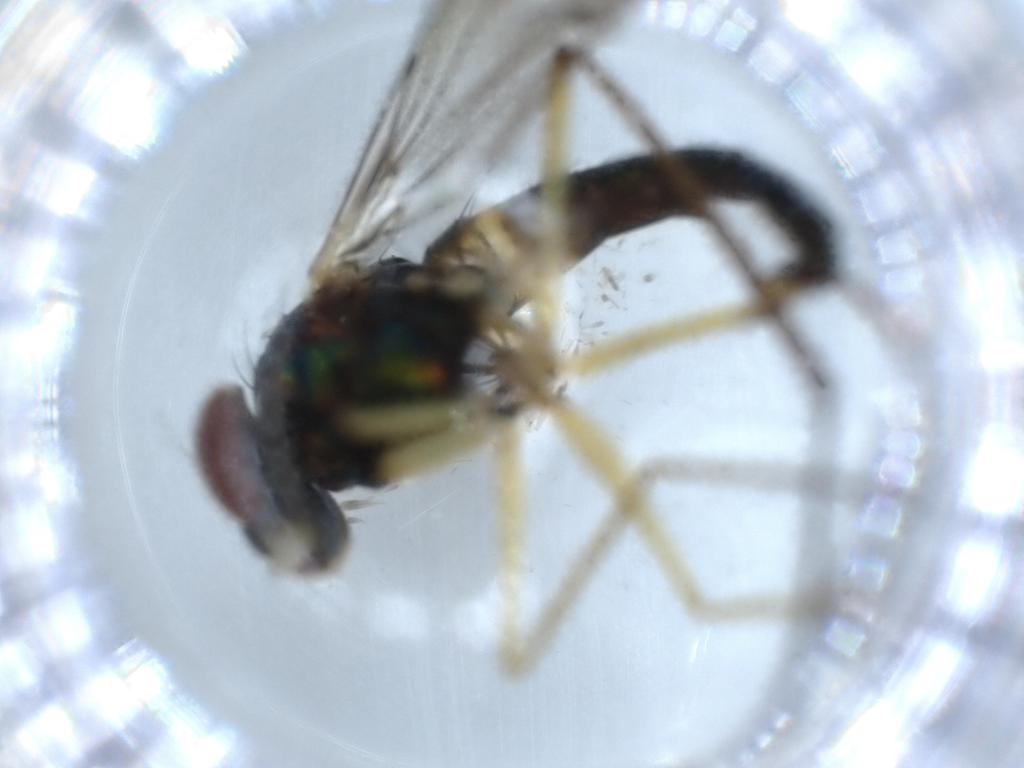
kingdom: Animalia
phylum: Arthropoda
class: Insecta
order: Diptera
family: Dolichopodidae
